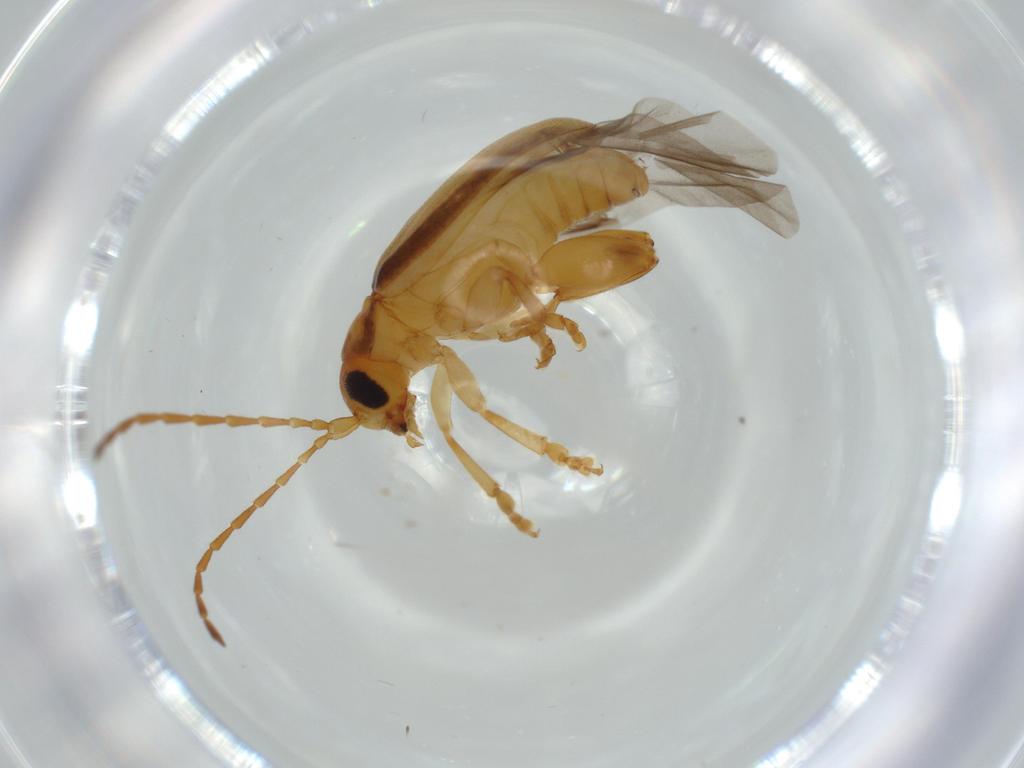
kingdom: Animalia
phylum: Arthropoda
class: Insecta
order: Coleoptera
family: Chrysomelidae
